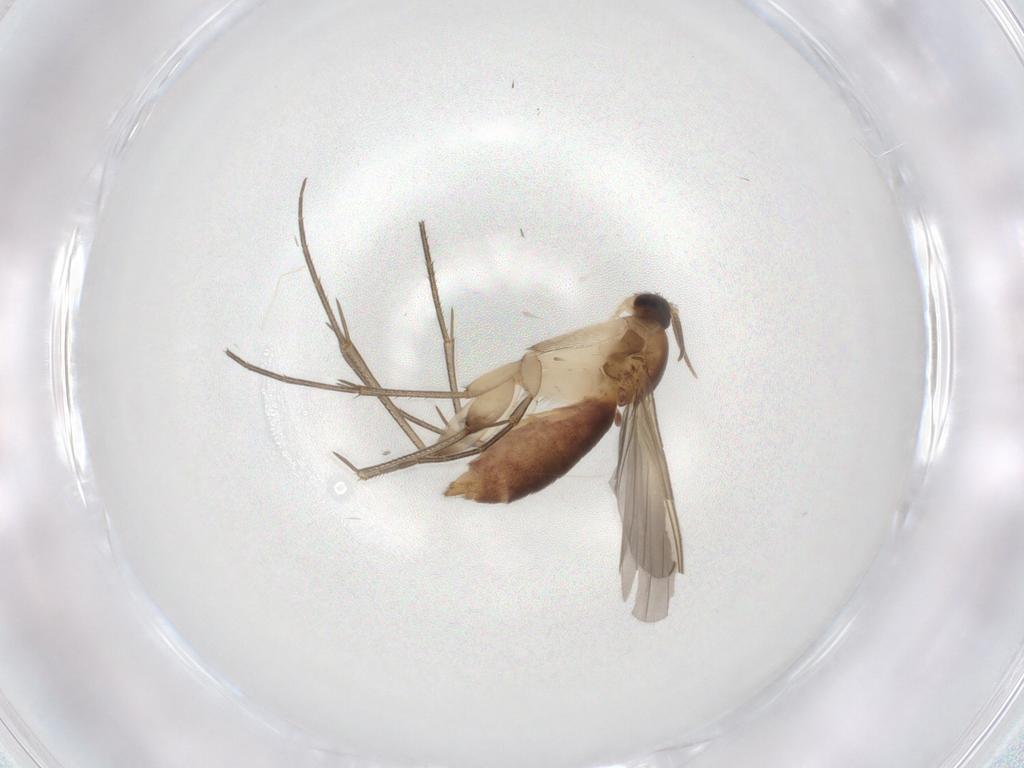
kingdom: Animalia
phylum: Arthropoda
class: Insecta
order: Diptera
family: Mycetophilidae
